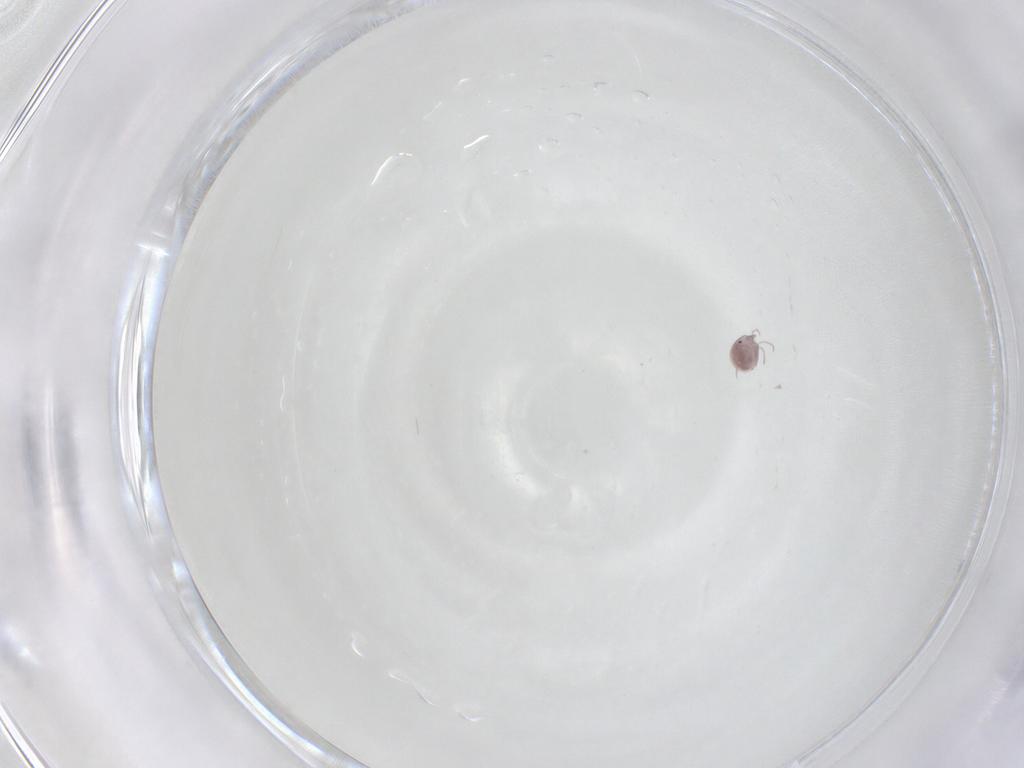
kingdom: Animalia
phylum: Arthropoda
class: Arachnida
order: Trombidiformes
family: Pionidae
